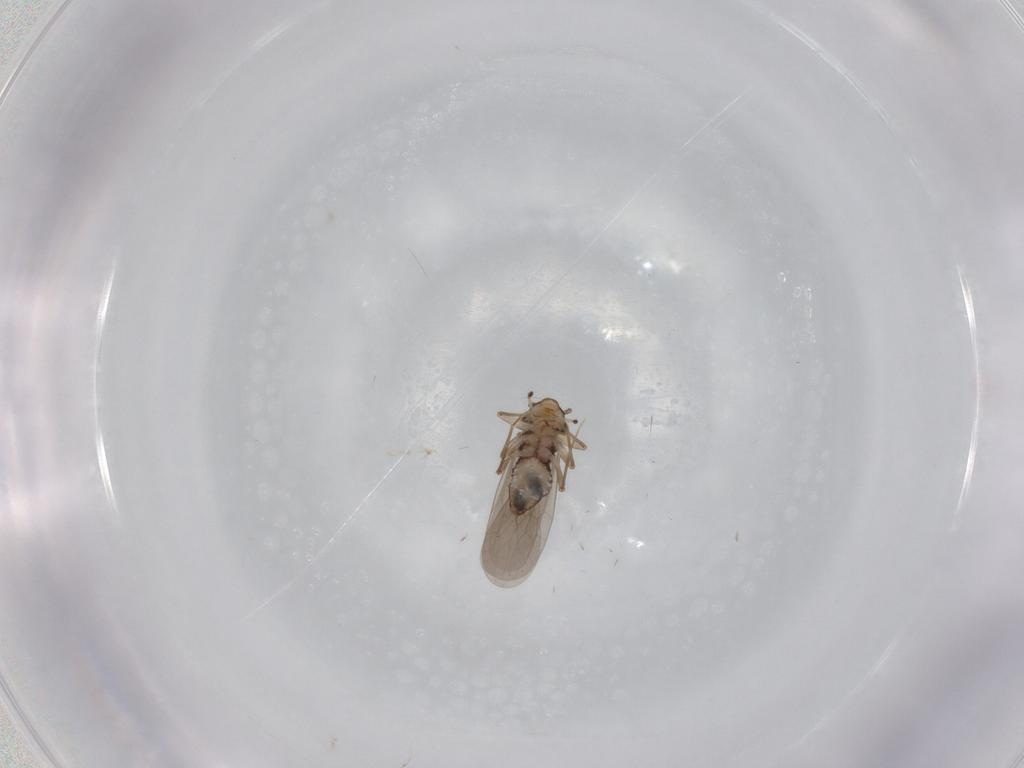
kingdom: Animalia
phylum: Arthropoda
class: Insecta
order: Psocodea
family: Lepidopsocidae
